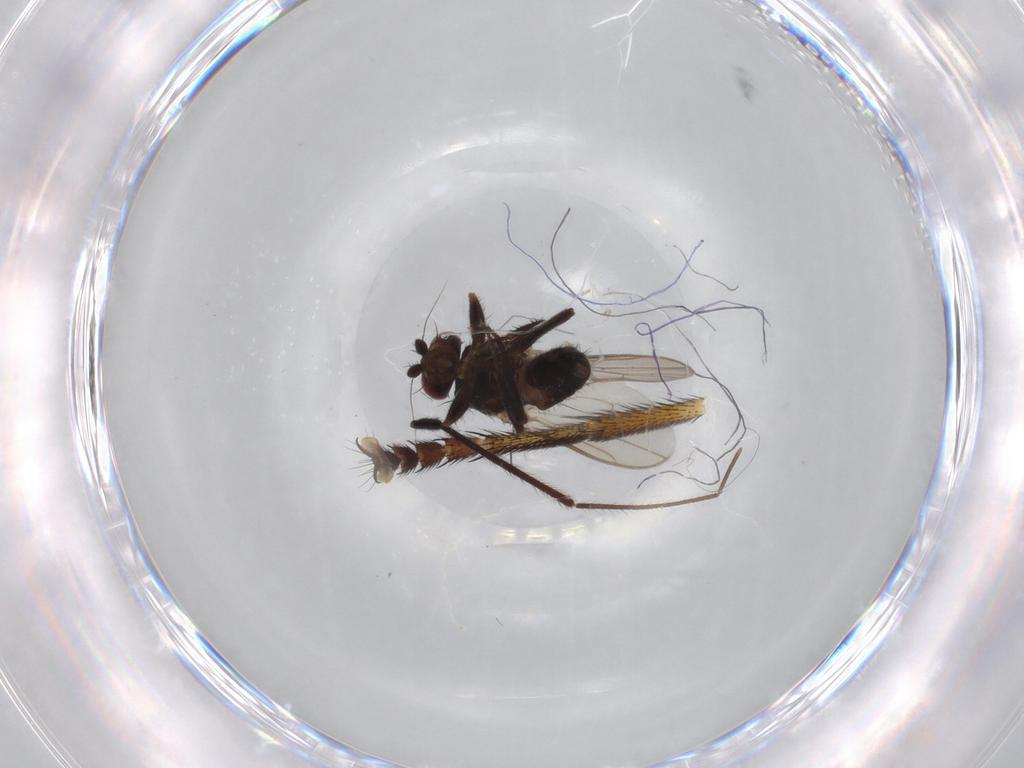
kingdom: Animalia
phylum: Arthropoda
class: Insecta
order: Diptera
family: Sphaeroceridae
